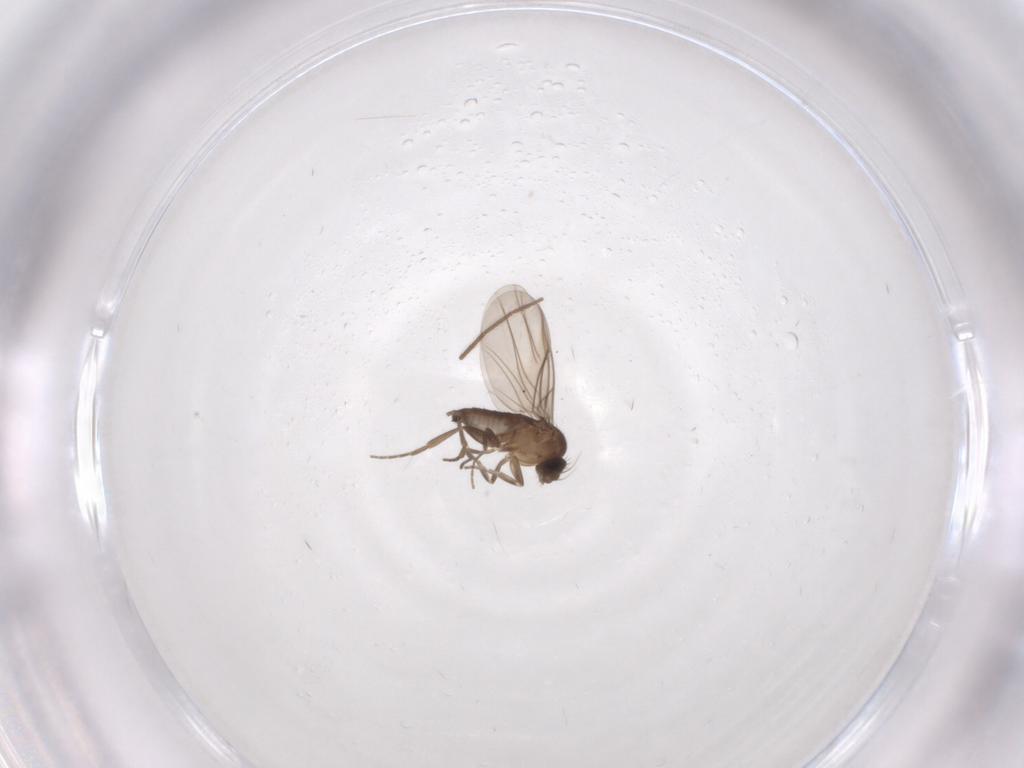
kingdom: Animalia
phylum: Arthropoda
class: Insecta
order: Diptera
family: Phoridae
